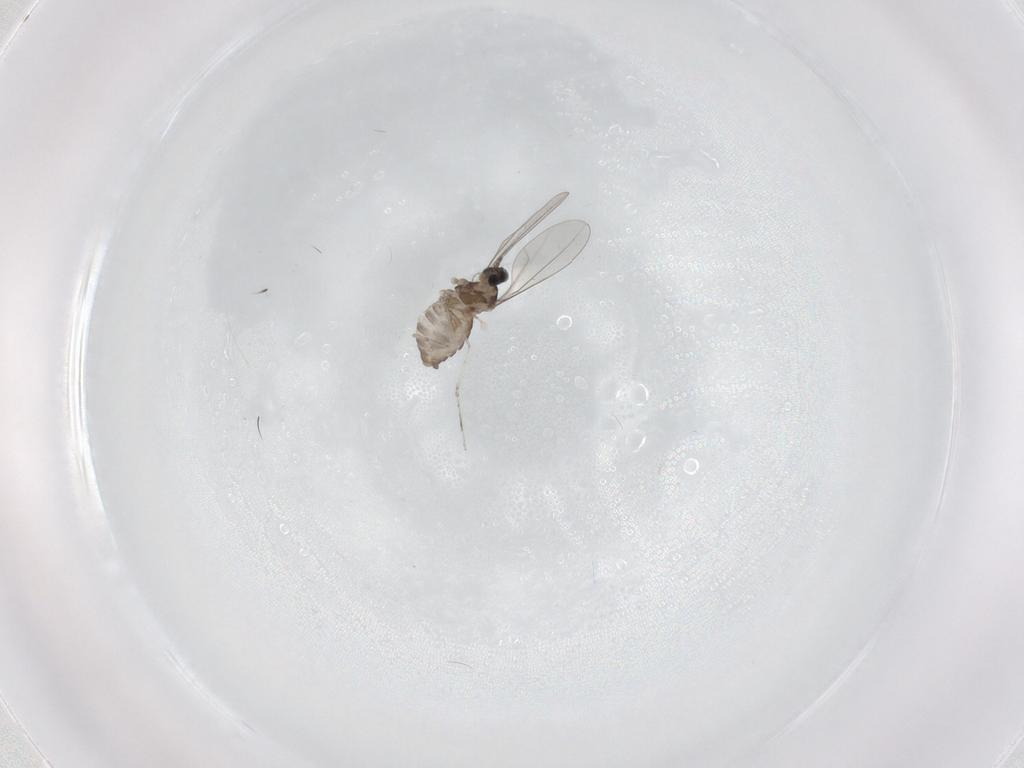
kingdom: Animalia
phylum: Arthropoda
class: Insecta
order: Diptera
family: Cecidomyiidae
